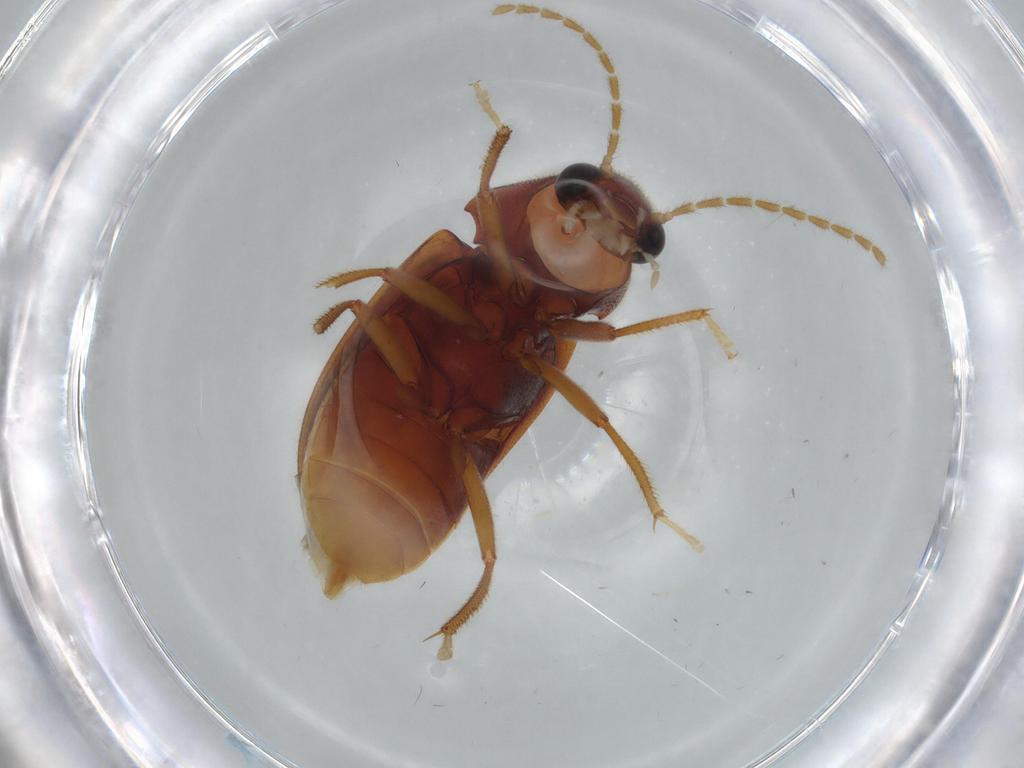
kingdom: Animalia
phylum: Arthropoda
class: Insecta
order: Coleoptera
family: Ptilodactylidae
